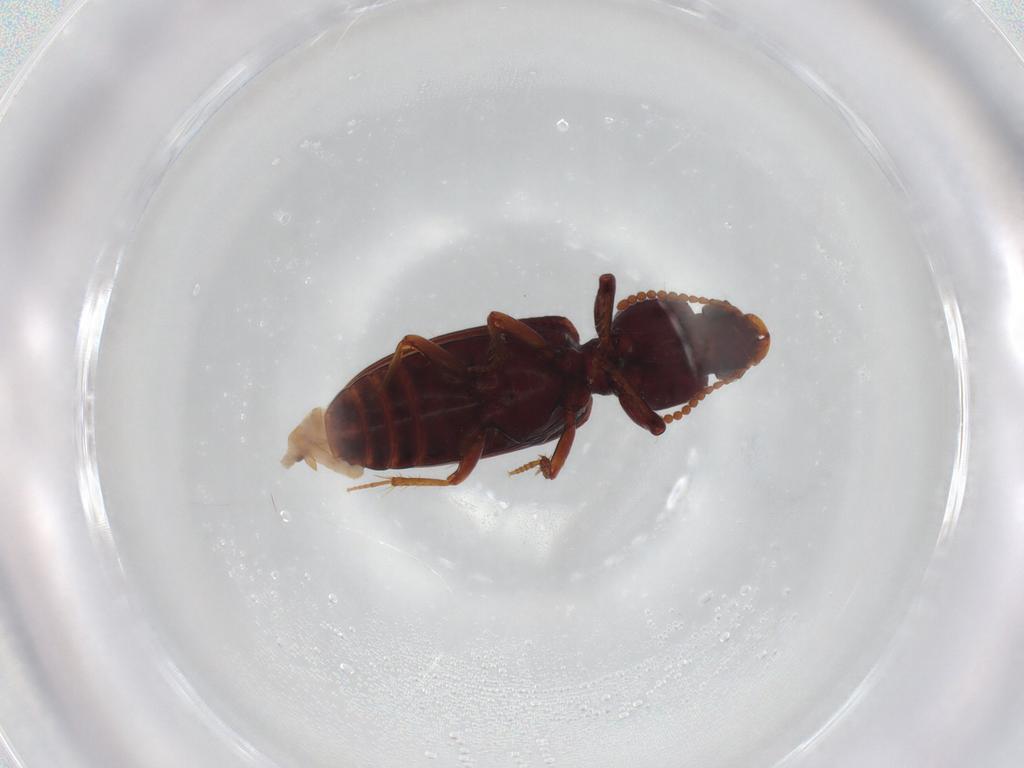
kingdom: Animalia
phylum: Arthropoda
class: Insecta
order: Coleoptera
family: Carabidae
